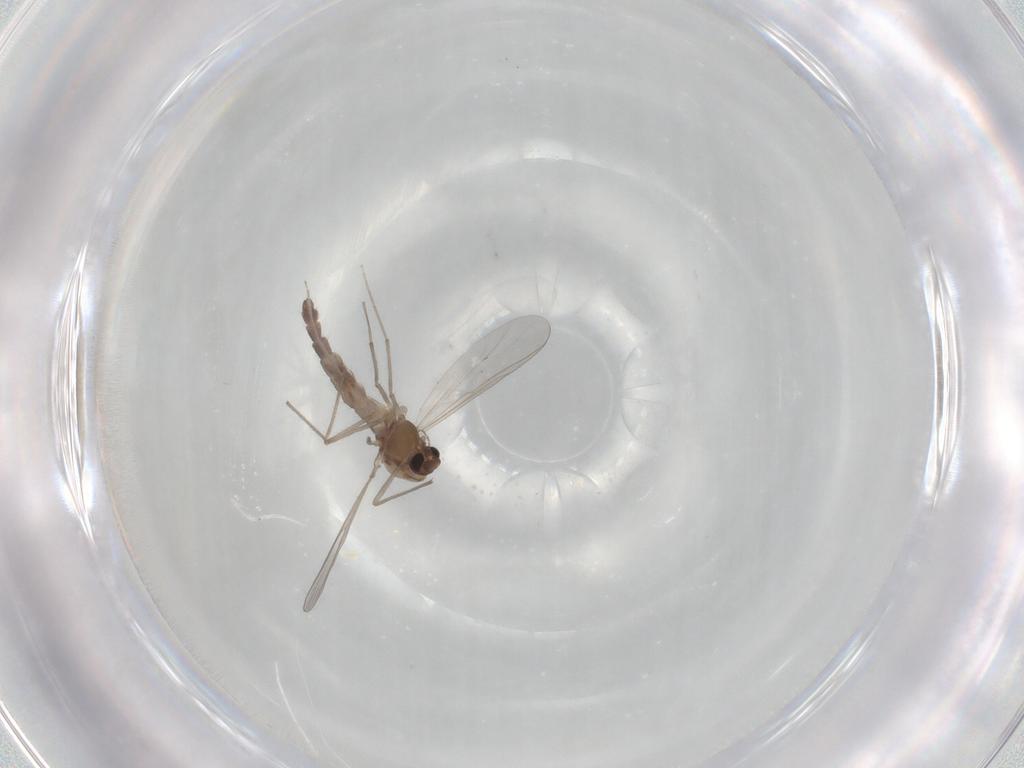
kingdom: Animalia
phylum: Arthropoda
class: Insecta
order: Diptera
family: Chironomidae
